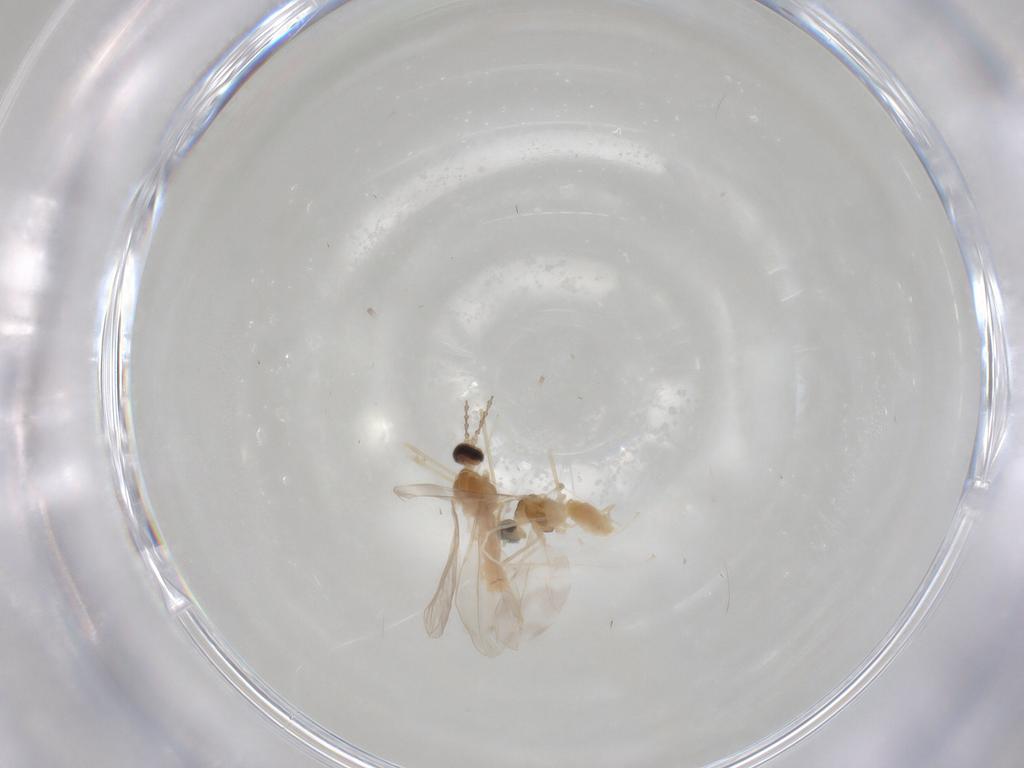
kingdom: Animalia
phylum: Arthropoda
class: Insecta
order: Diptera
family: Cecidomyiidae
